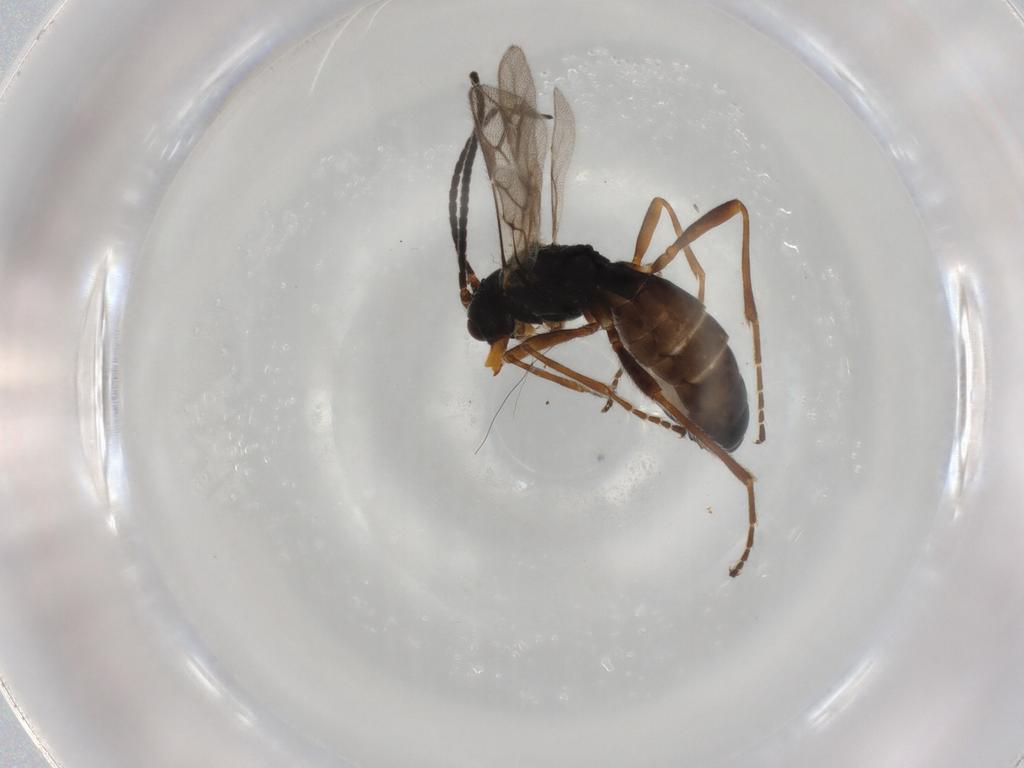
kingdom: Animalia
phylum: Arthropoda
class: Insecta
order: Hymenoptera
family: Braconidae
